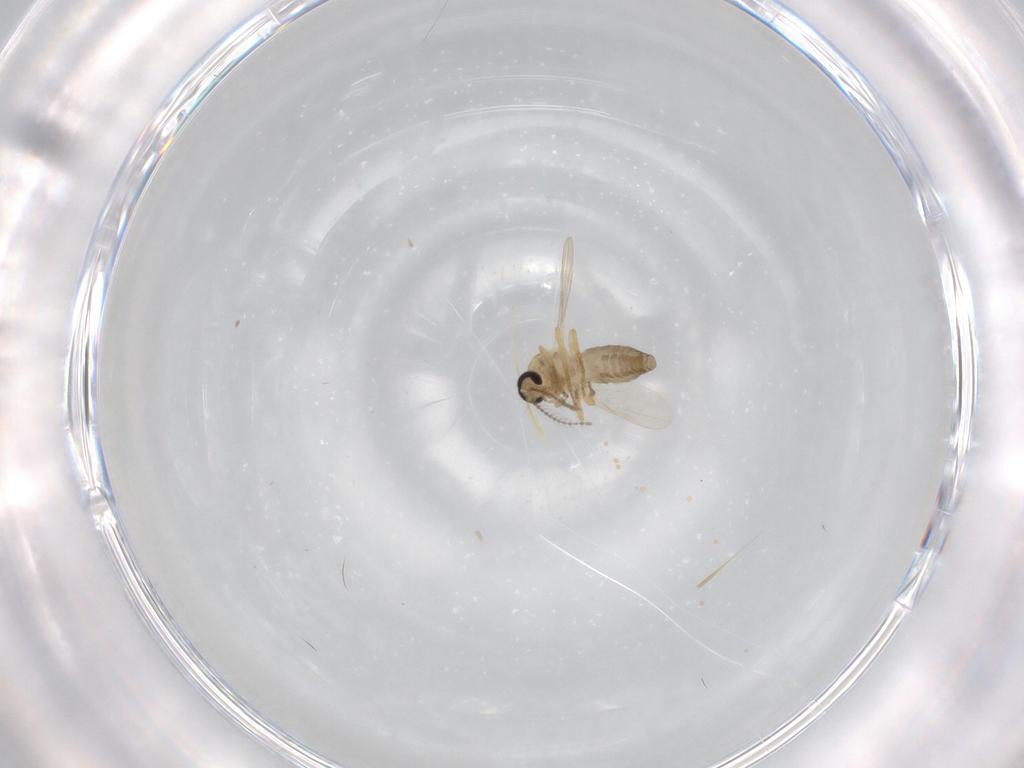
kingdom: Animalia
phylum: Arthropoda
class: Insecta
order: Diptera
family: Ceratopogonidae
